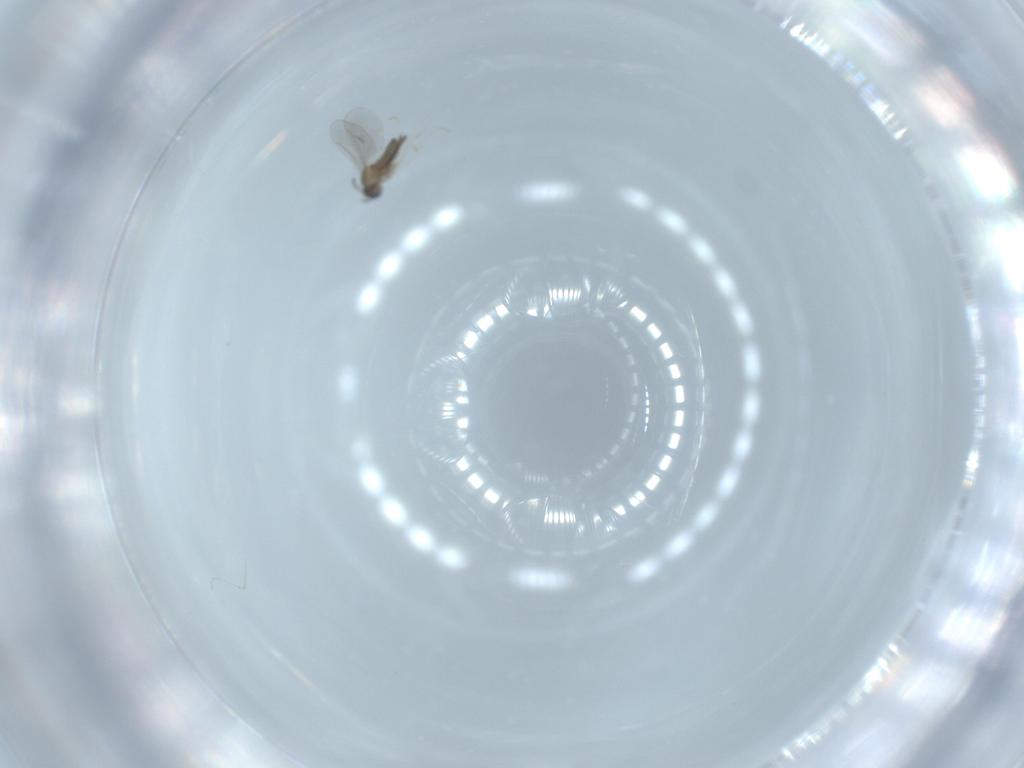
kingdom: Animalia
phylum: Arthropoda
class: Insecta
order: Diptera
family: Cecidomyiidae
